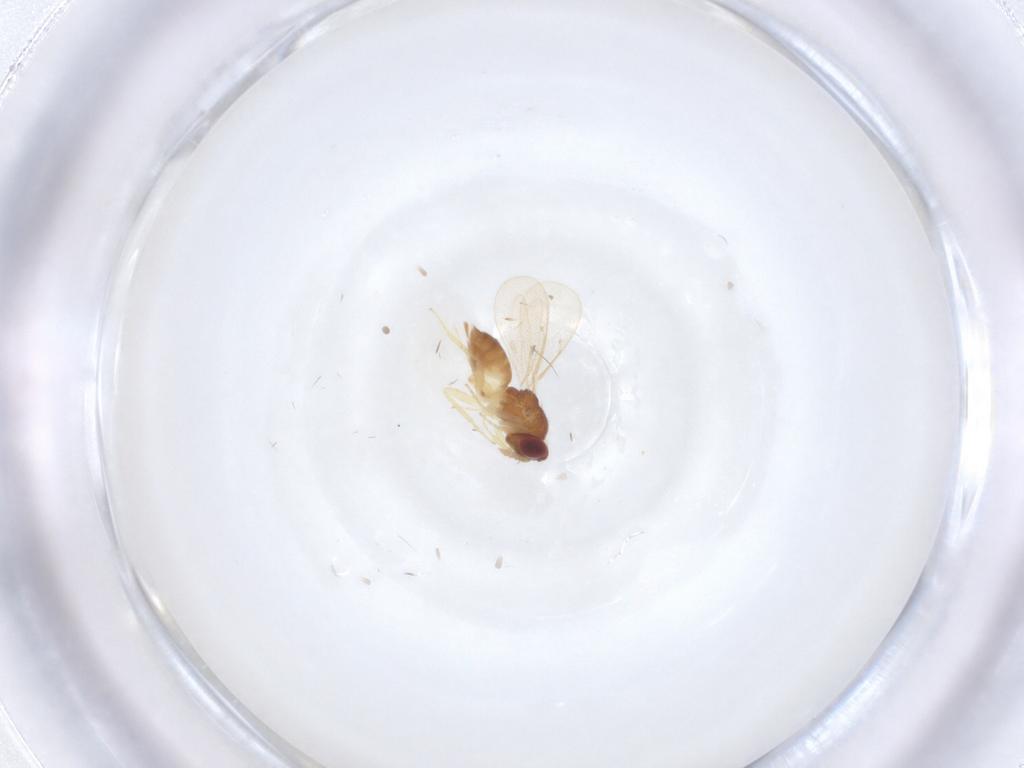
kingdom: Animalia
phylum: Arthropoda
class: Insecta
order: Hymenoptera
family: Eulophidae
